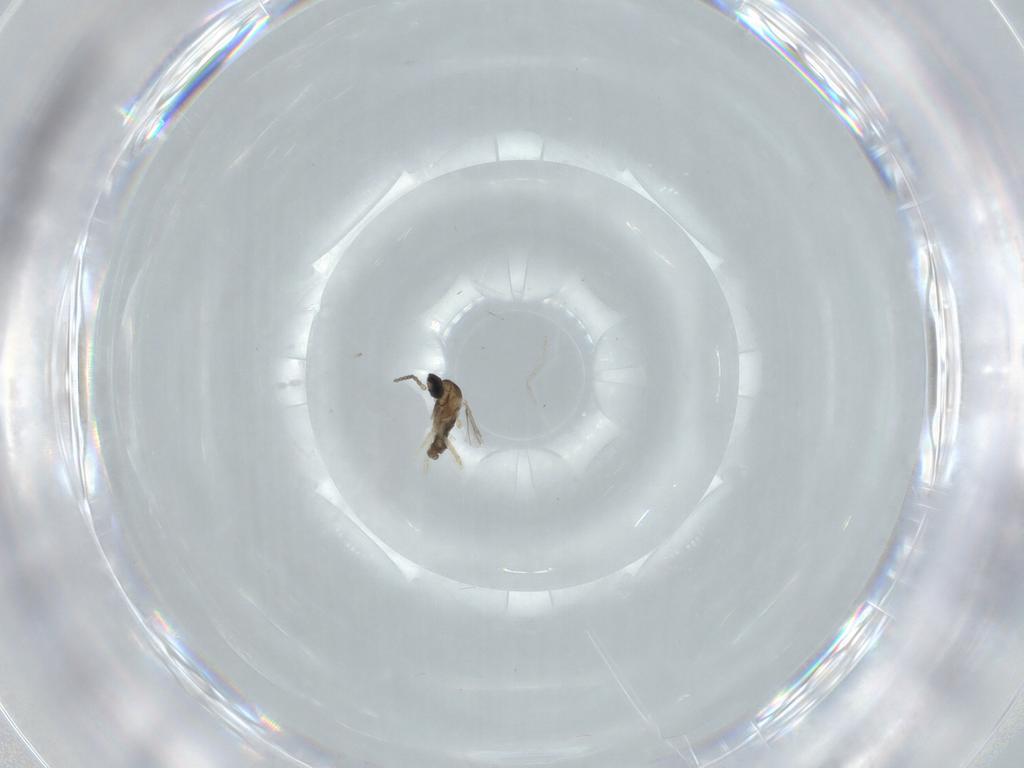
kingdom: Animalia
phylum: Arthropoda
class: Insecta
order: Diptera
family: Cecidomyiidae
